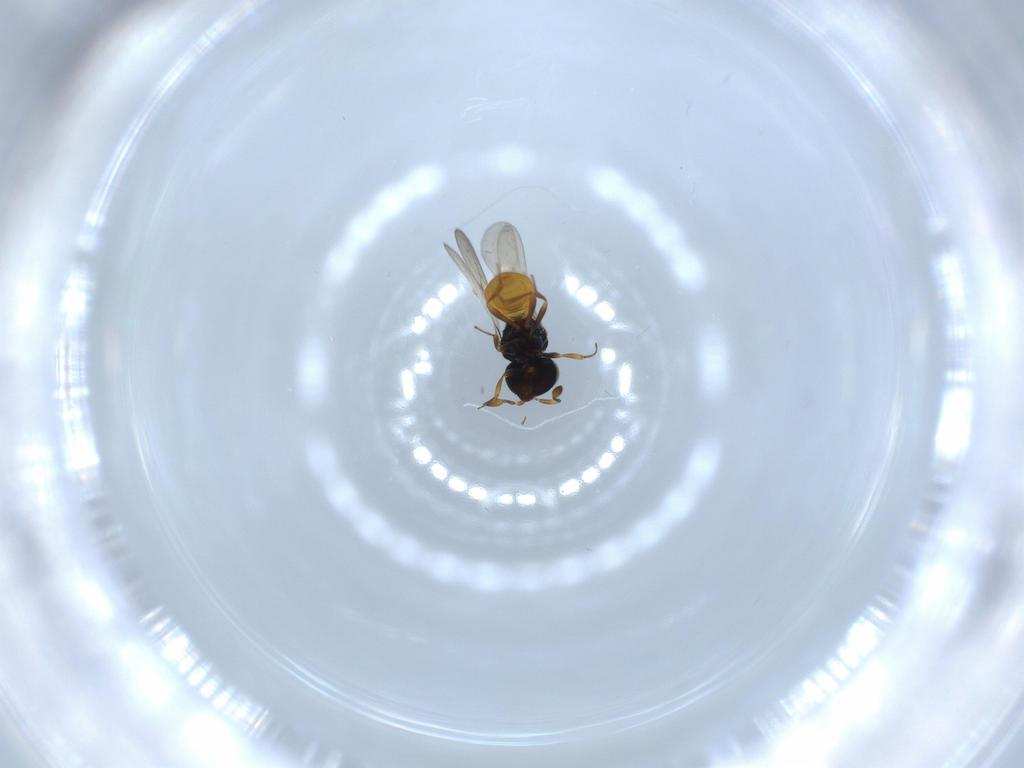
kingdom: Animalia
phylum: Arthropoda
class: Insecta
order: Hymenoptera
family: Scelionidae
